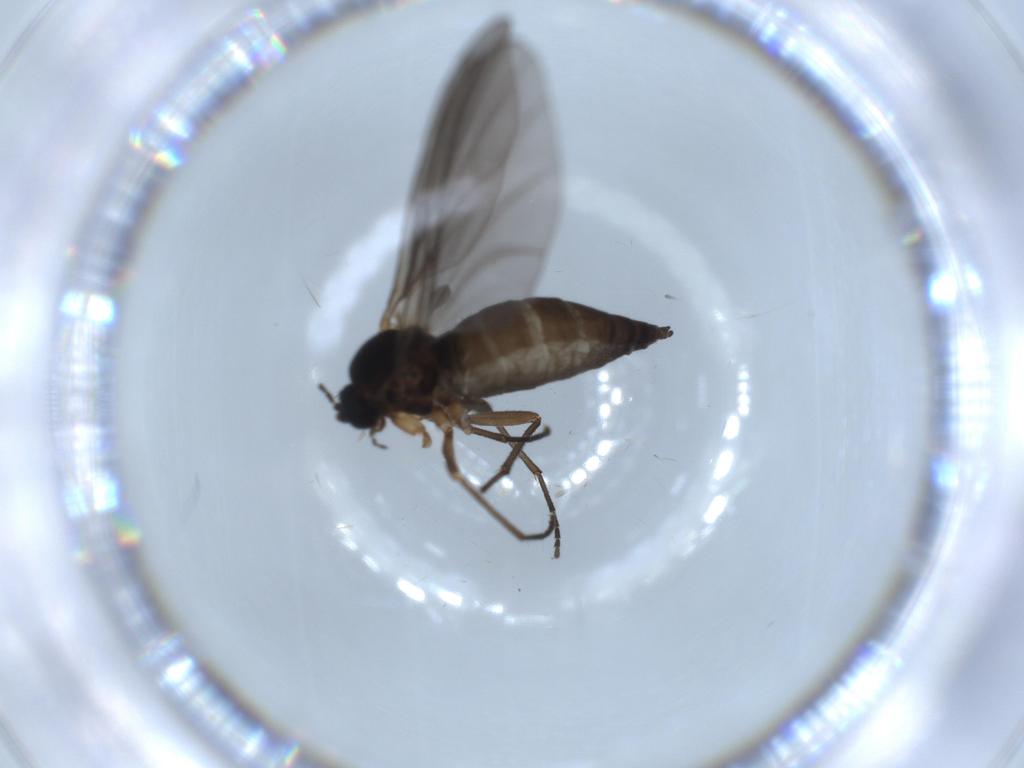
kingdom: Animalia
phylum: Arthropoda
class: Insecta
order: Diptera
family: Sciaridae
